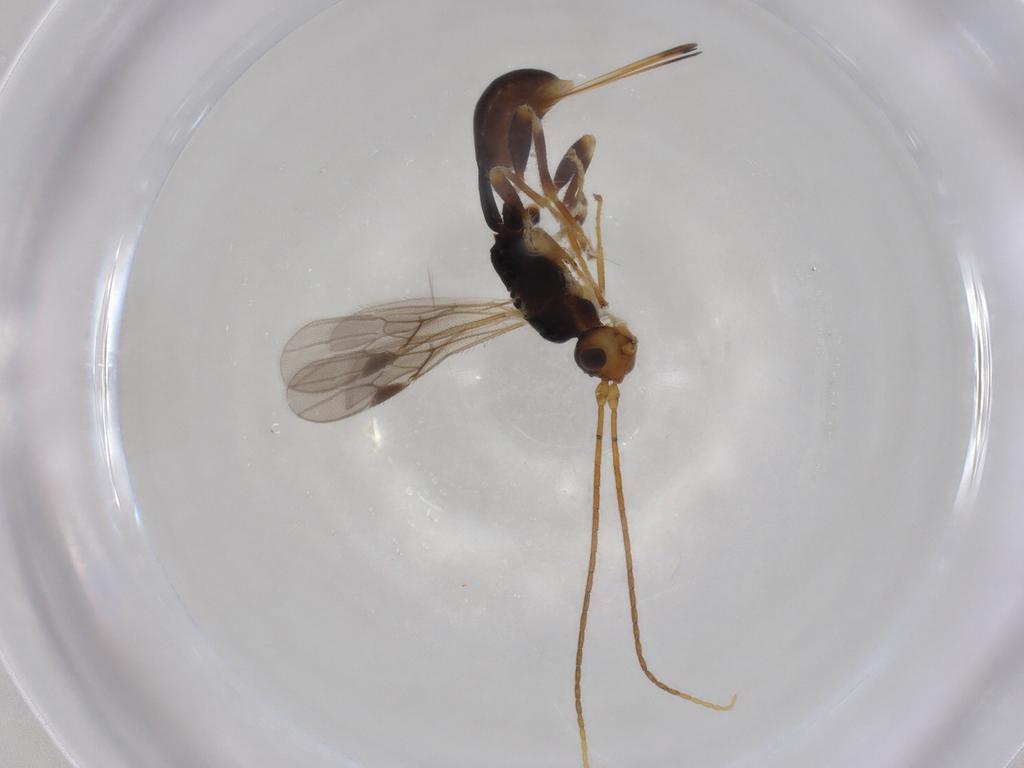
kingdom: Animalia
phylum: Arthropoda
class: Insecta
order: Hymenoptera
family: Braconidae
